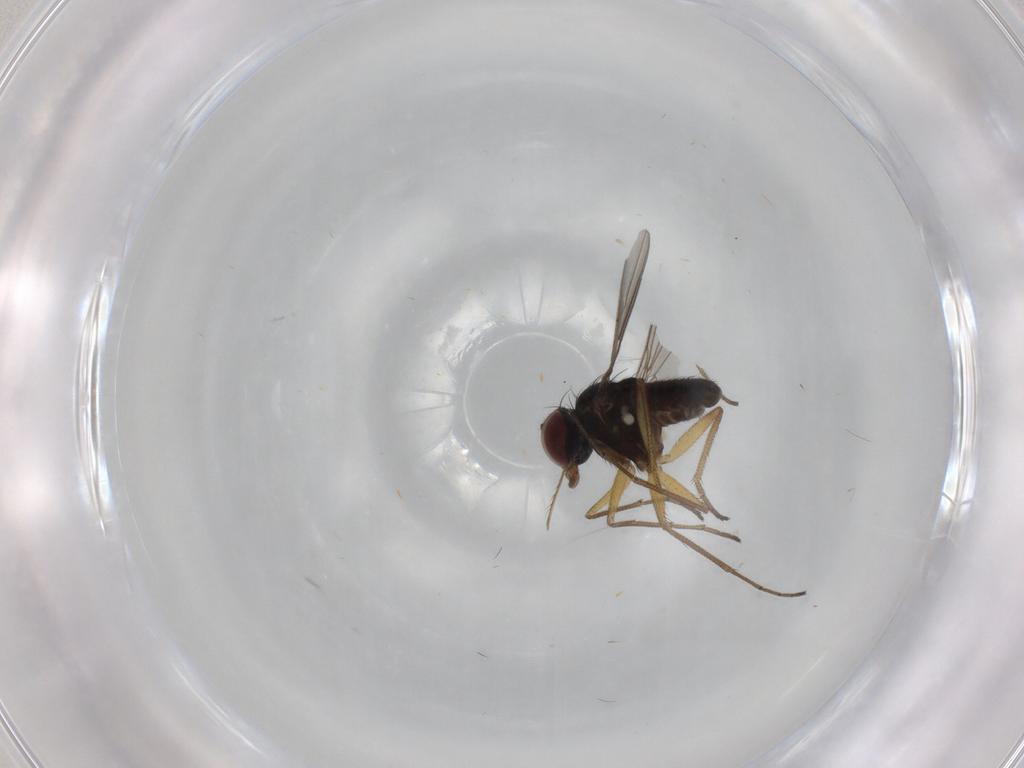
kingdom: Animalia
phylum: Arthropoda
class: Insecta
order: Diptera
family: Dolichopodidae
